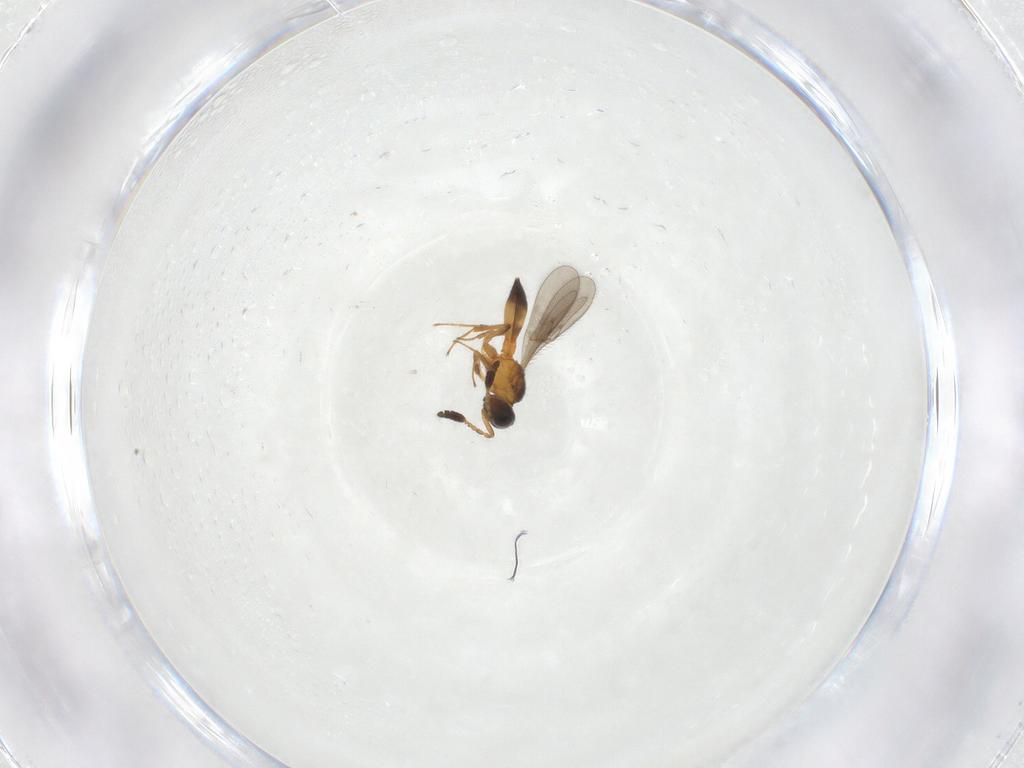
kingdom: Animalia
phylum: Arthropoda
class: Insecta
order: Hymenoptera
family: Scelionidae
